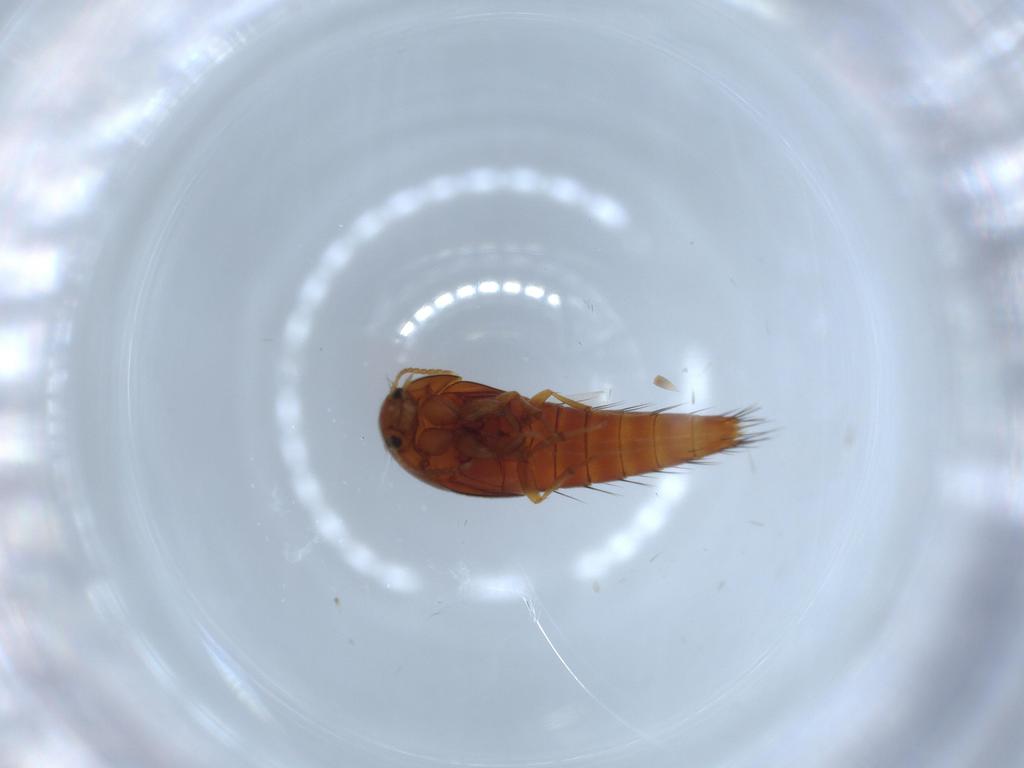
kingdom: Animalia
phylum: Arthropoda
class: Insecta
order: Coleoptera
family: Staphylinidae
